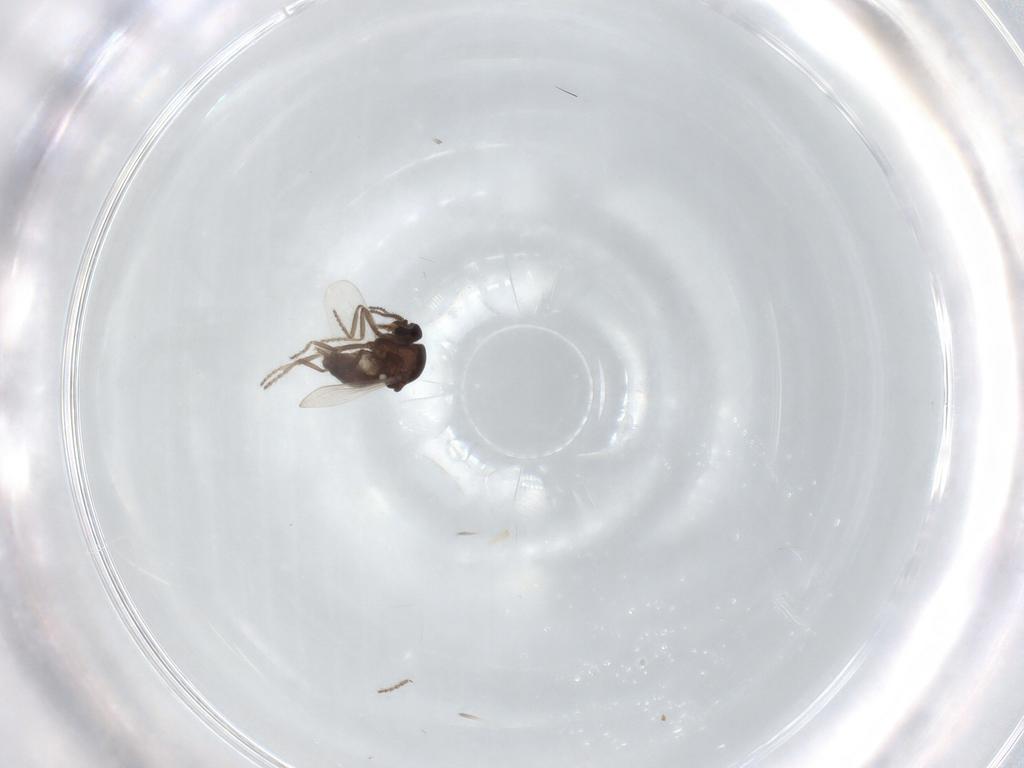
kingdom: Animalia
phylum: Arthropoda
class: Insecta
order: Diptera
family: Ceratopogonidae
